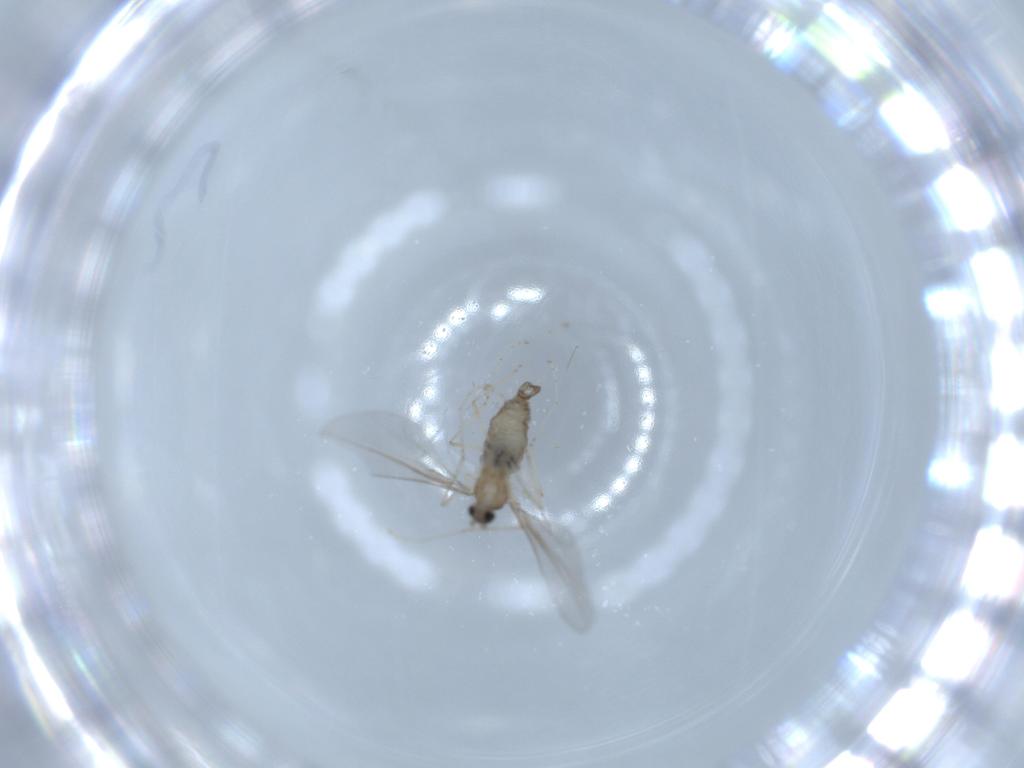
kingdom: Animalia
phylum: Arthropoda
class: Insecta
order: Diptera
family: Cecidomyiidae
